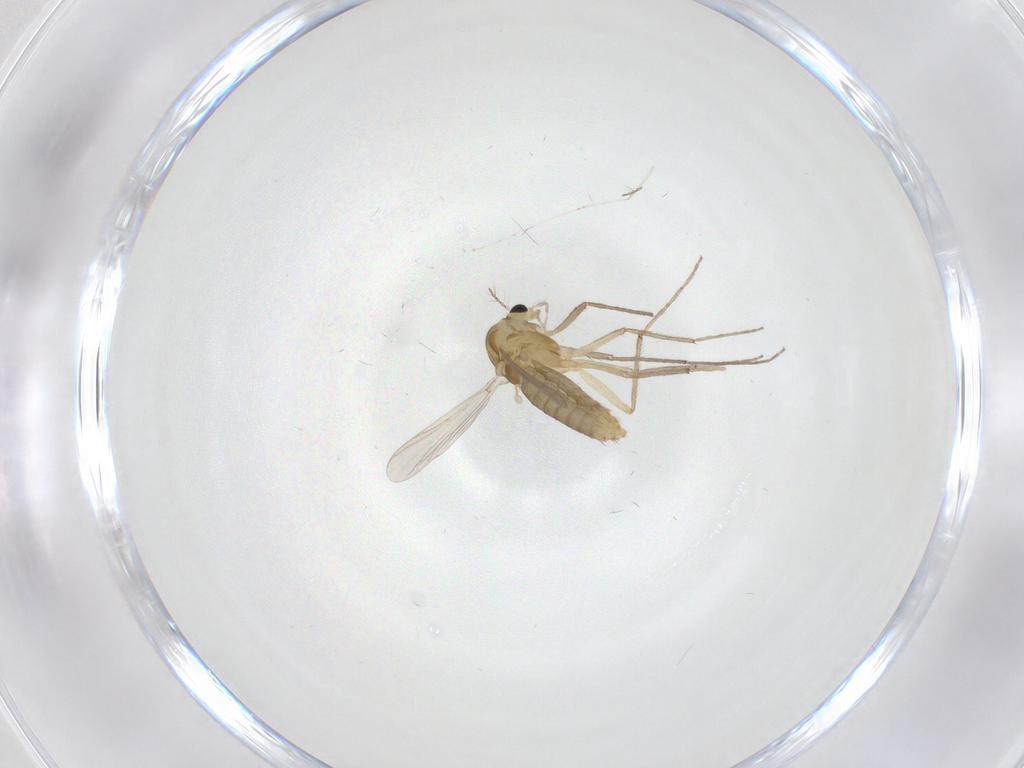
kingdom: Animalia
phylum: Arthropoda
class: Insecta
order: Diptera
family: Chironomidae
